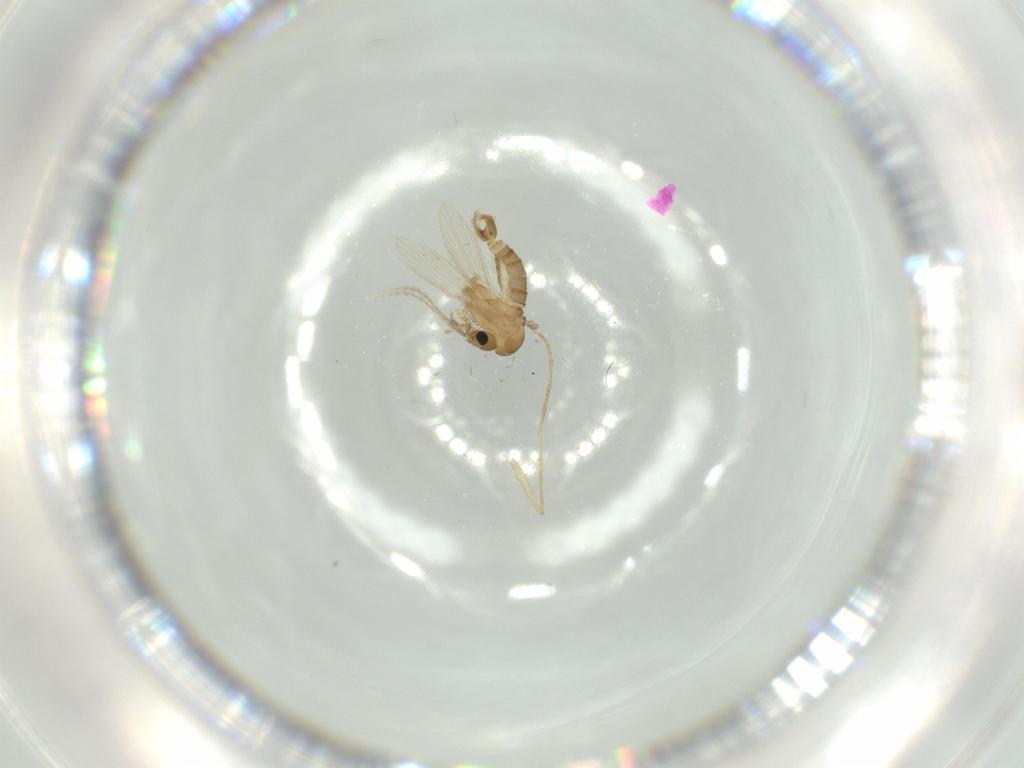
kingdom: Animalia
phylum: Arthropoda
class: Insecta
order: Diptera
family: Psychodidae
